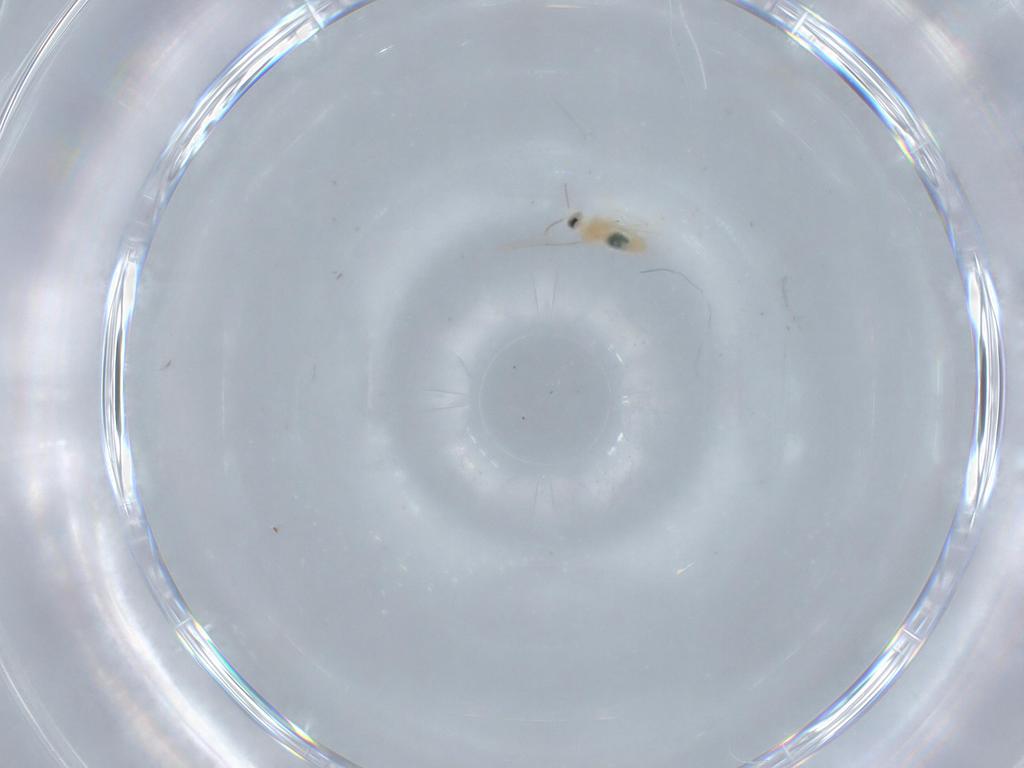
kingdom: Animalia
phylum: Arthropoda
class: Insecta
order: Diptera
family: Cecidomyiidae
